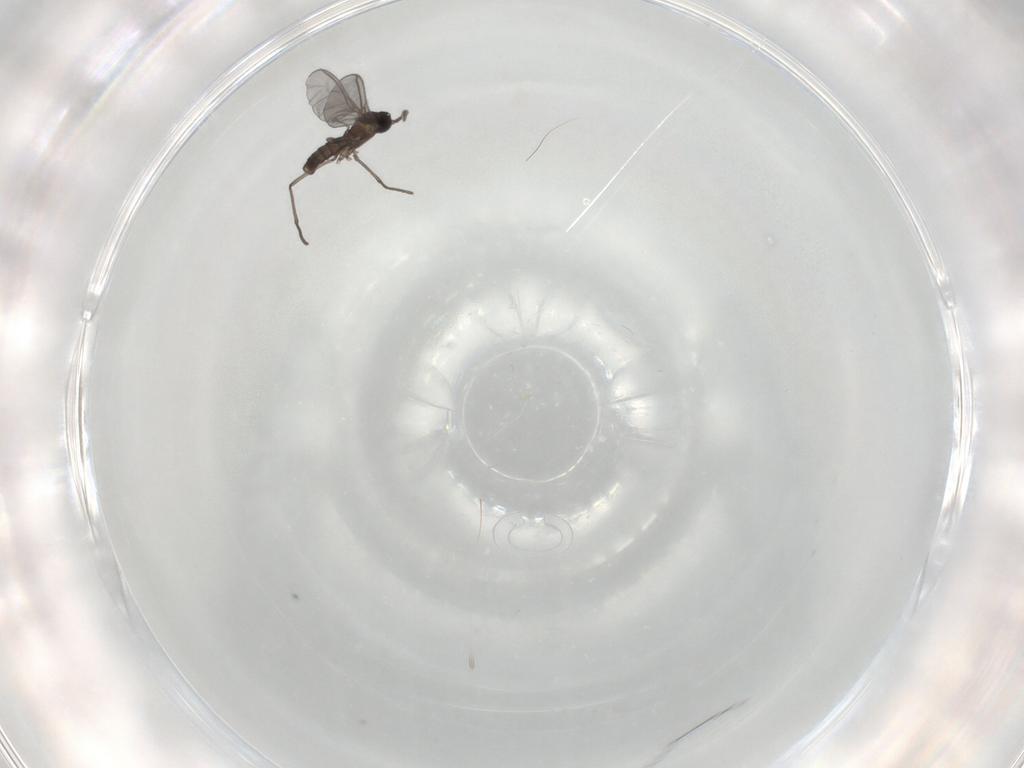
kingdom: Animalia
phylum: Arthropoda
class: Insecta
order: Diptera
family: Sciaridae
